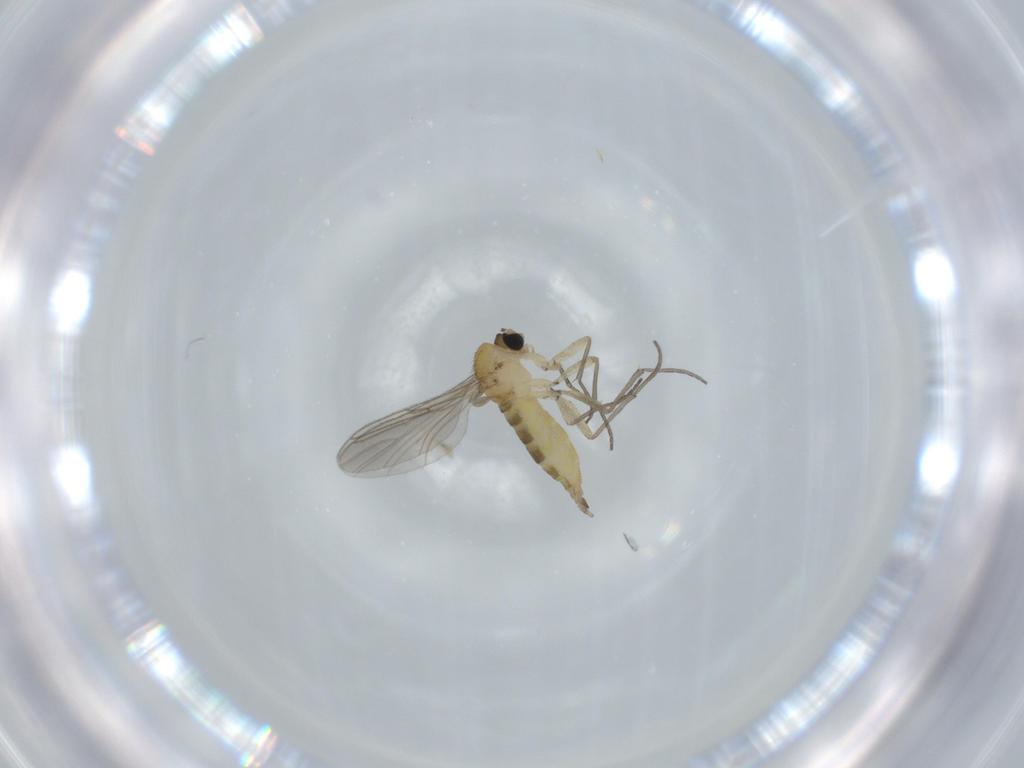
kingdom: Animalia
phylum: Arthropoda
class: Insecta
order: Diptera
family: Sciaridae
